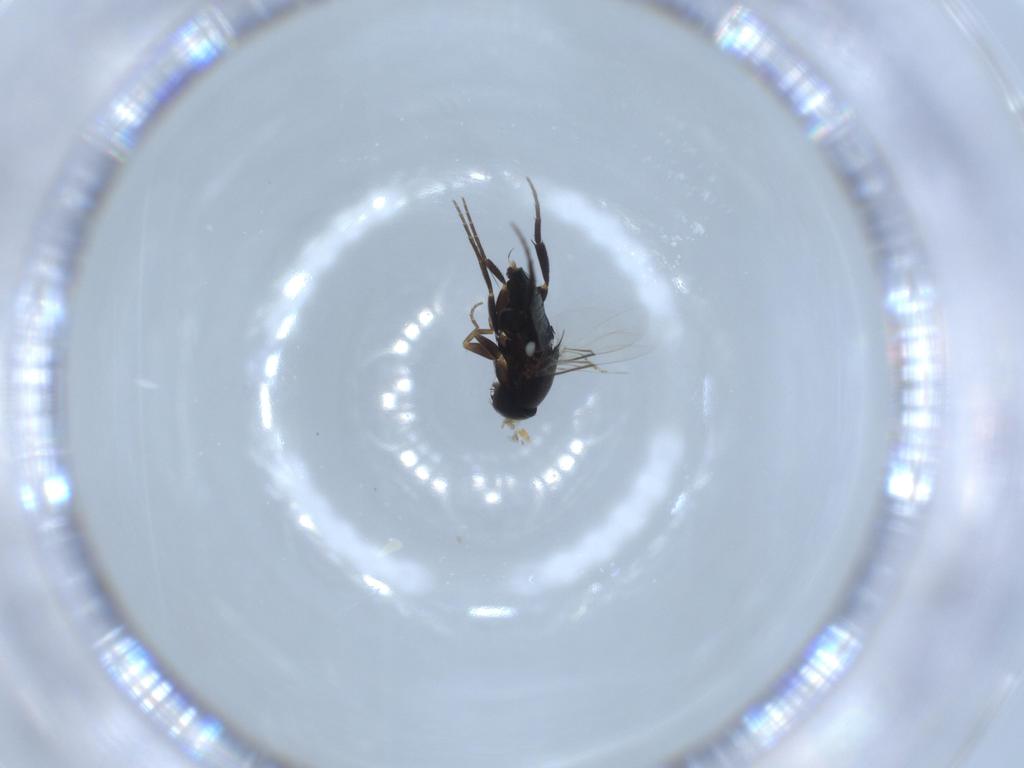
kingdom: Animalia
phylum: Arthropoda
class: Insecta
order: Diptera
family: Phoridae
